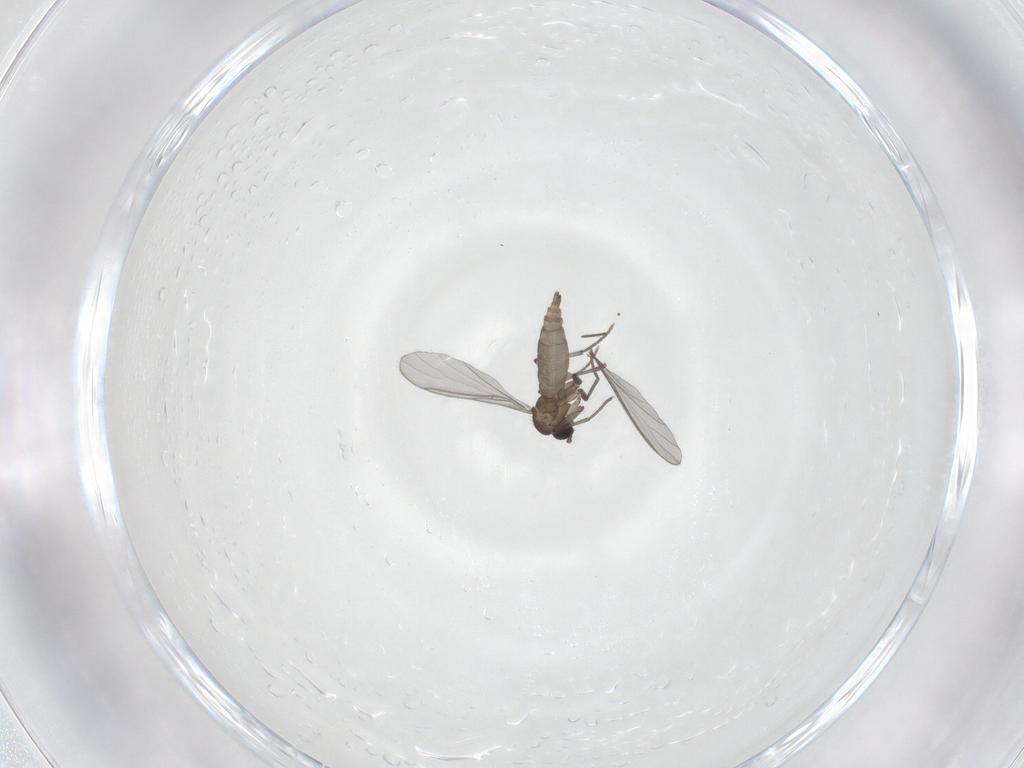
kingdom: Animalia
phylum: Arthropoda
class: Insecta
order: Diptera
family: Sciaridae
